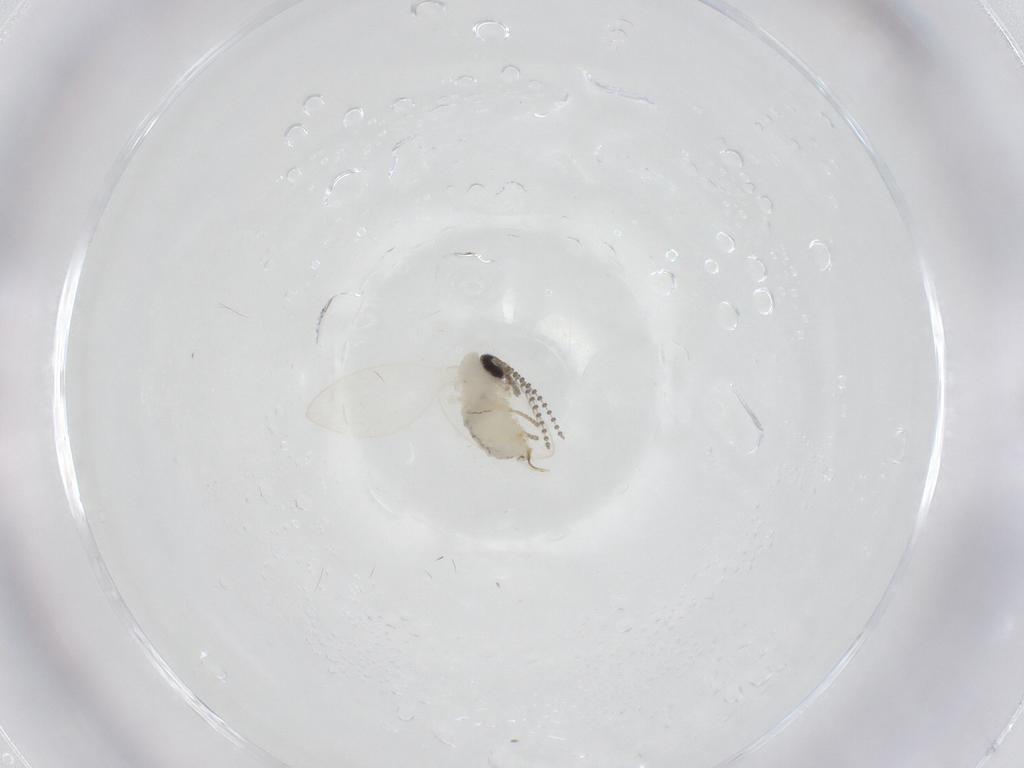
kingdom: Animalia
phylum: Arthropoda
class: Insecta
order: Diptera
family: Psychodidae
